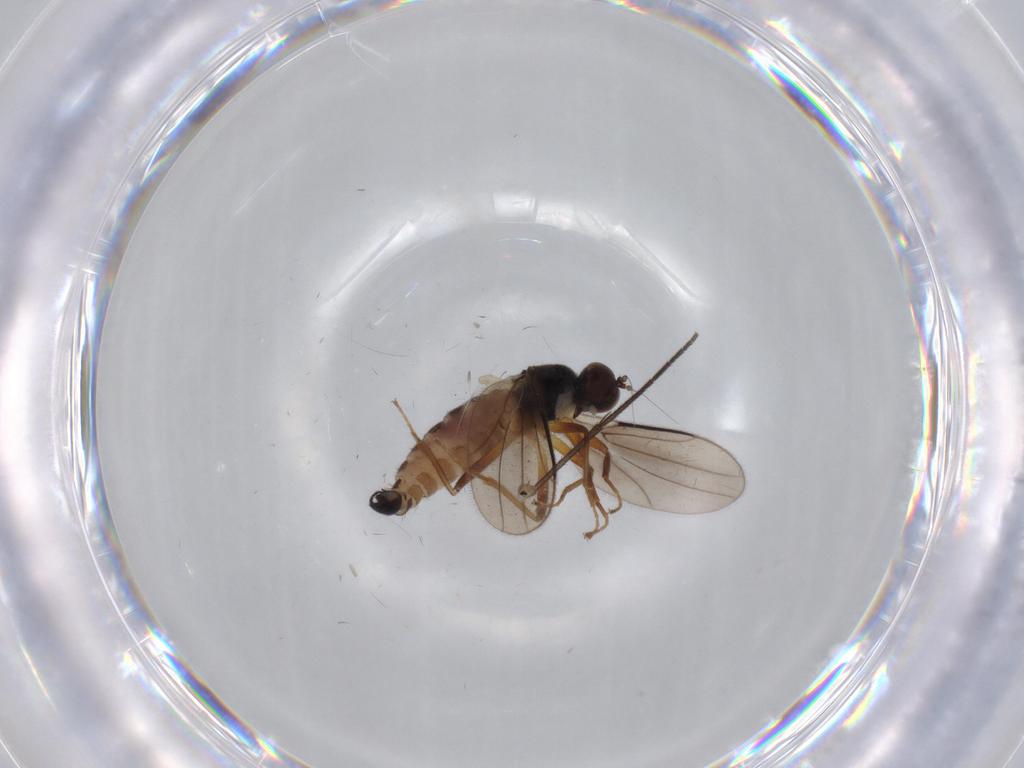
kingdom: Animalia
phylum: Arthropoda
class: Insecta
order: Diptera
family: Hybotidae
